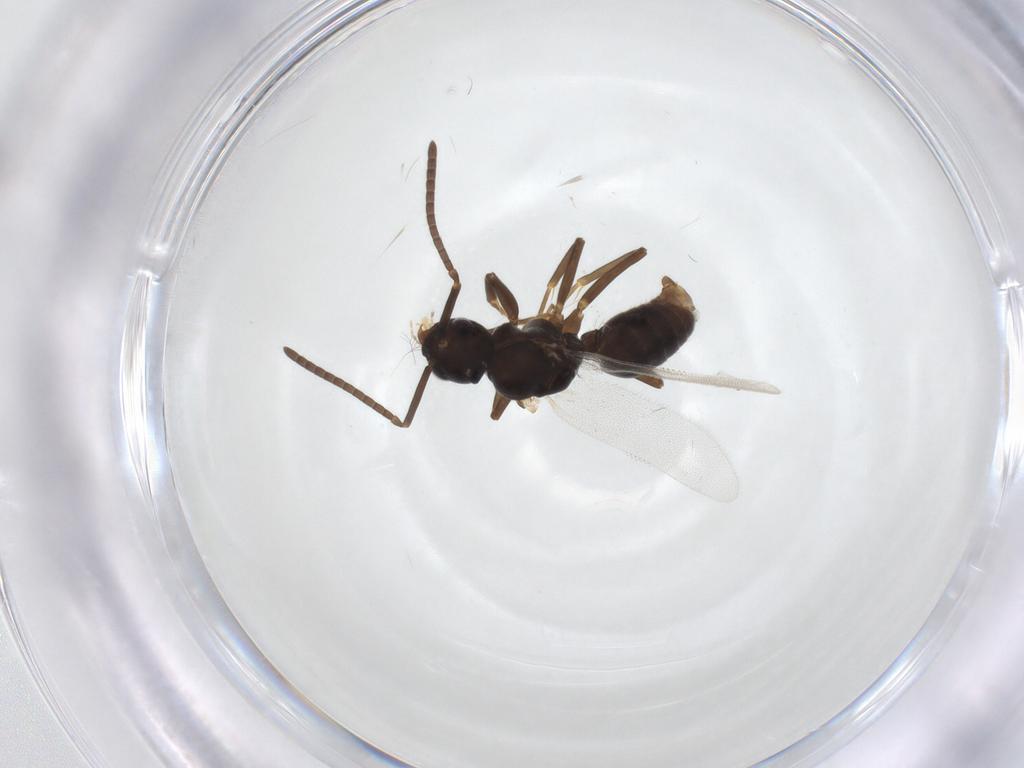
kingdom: Animalia
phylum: Arthropoda
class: Insecta
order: Hymenoptera
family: Formicidae
